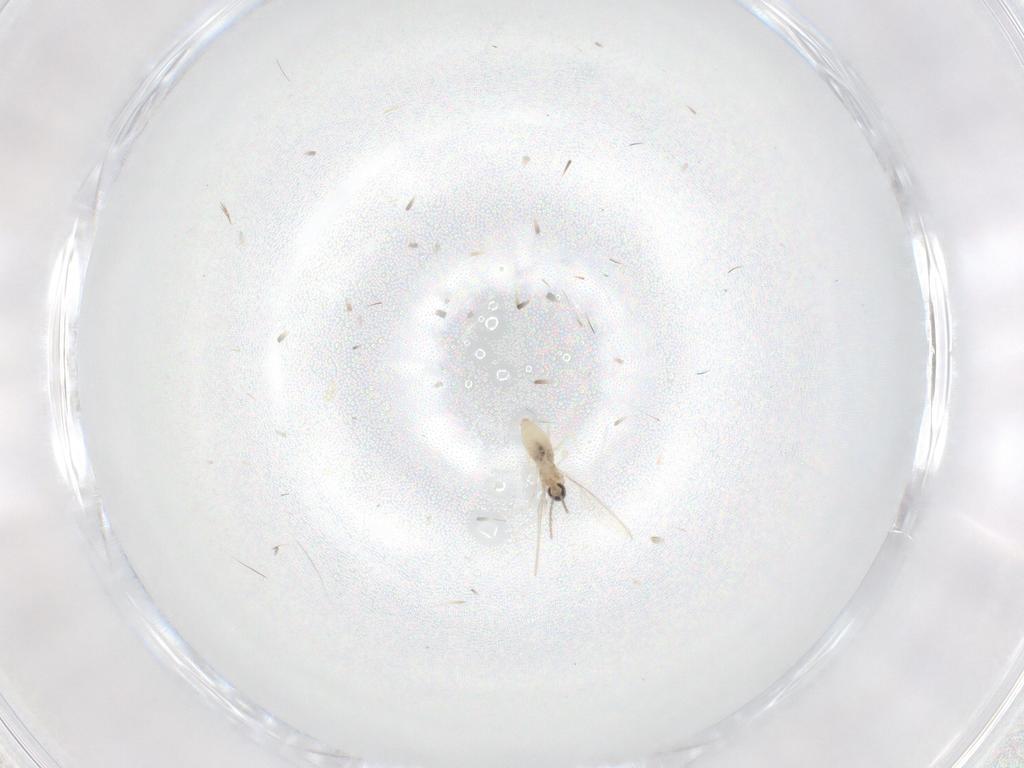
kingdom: Animalia
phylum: Arthropoda
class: Insecta
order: Diptera
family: Cecidomyiidae
